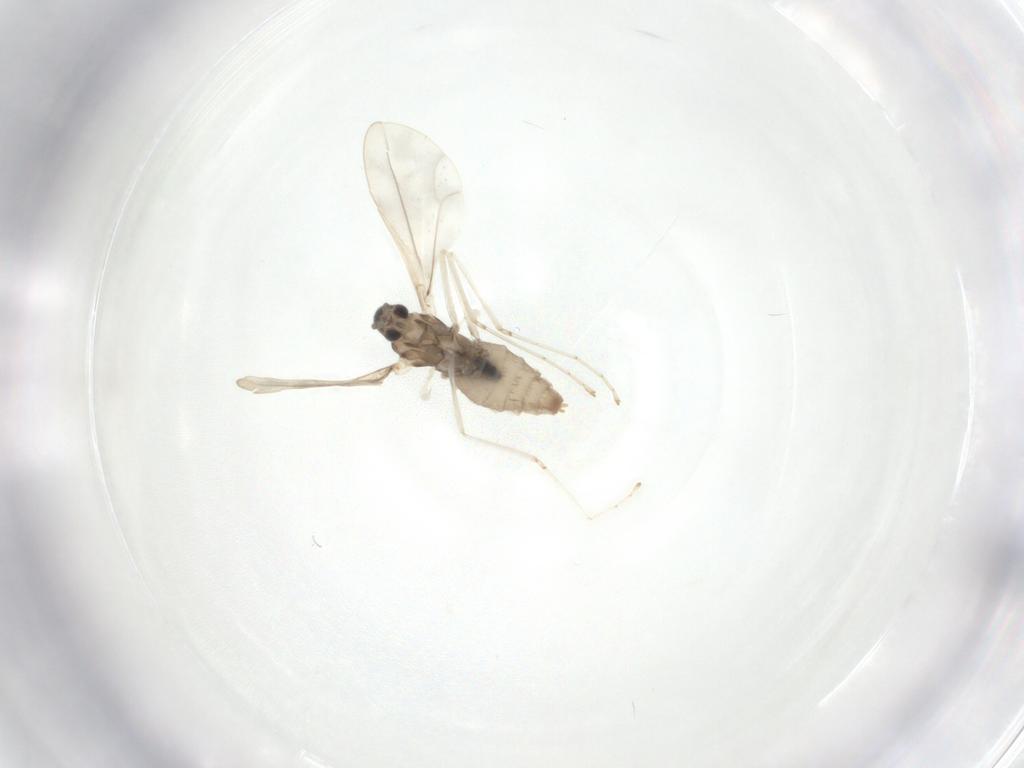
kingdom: Animalia
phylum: Arthropoda
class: Insecta
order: Diptera
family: Cecidomyiidae
